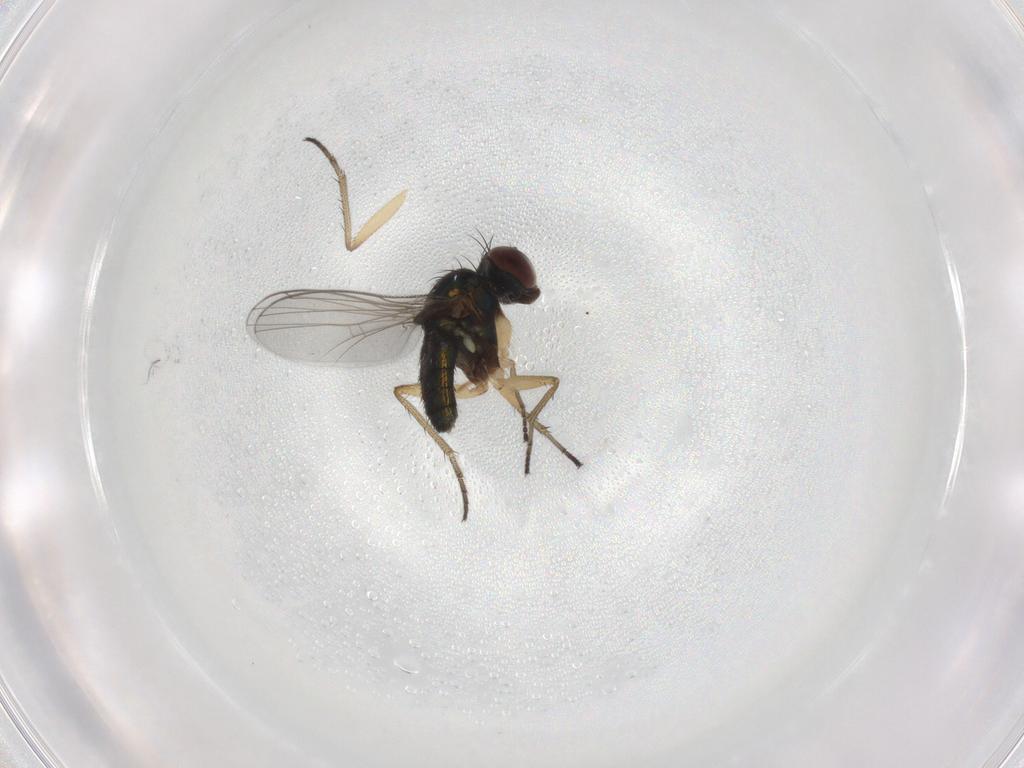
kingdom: Animalia
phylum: Arthropoda
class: Insecta
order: Diptera
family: Dolichopodidae
